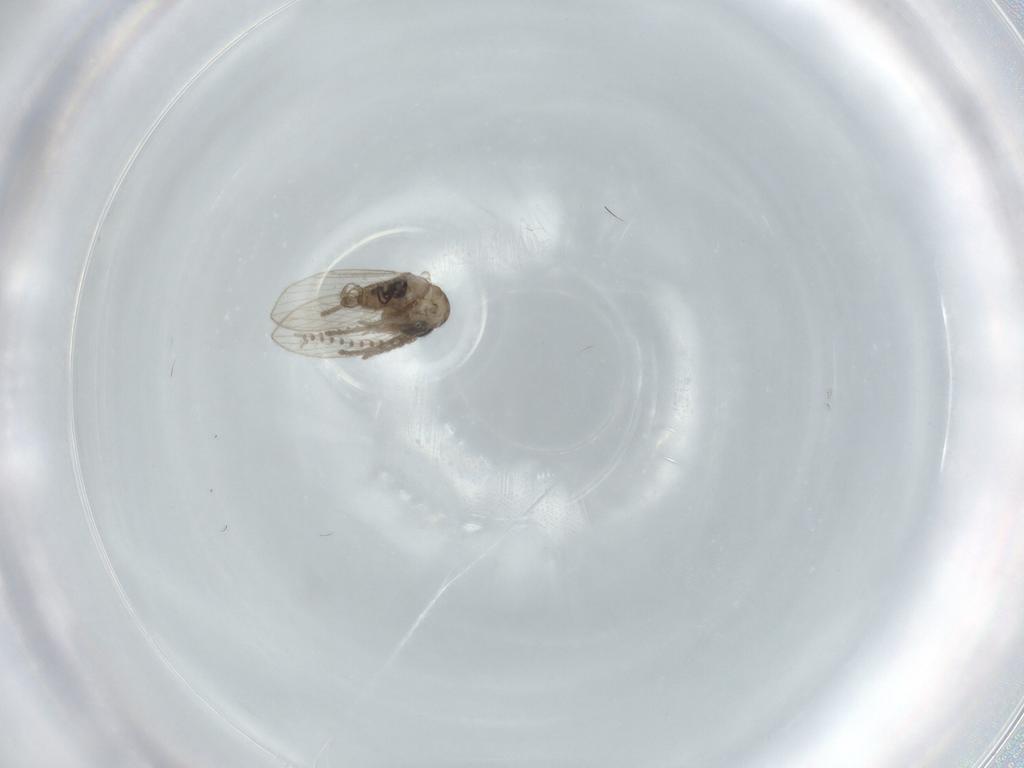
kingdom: Animalia
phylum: Arthropoda
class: Insecta
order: Diptera
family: Psychodidae
